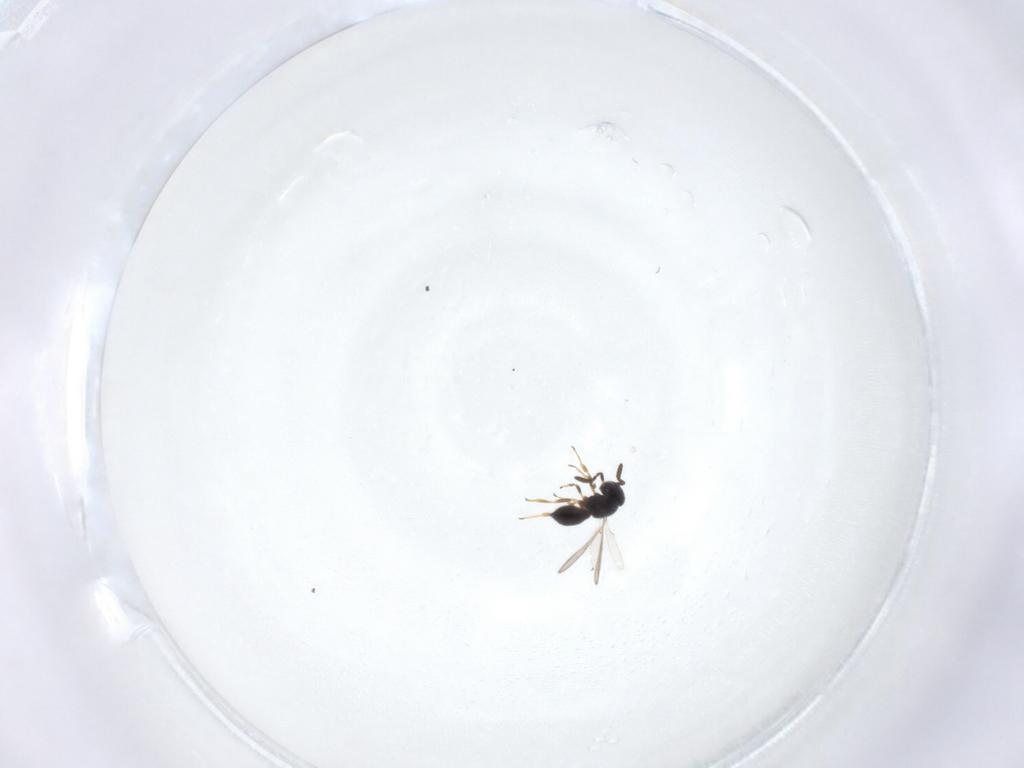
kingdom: Animalia
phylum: Arthropoda
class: Insecta
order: Hymenoptera
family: Scelionidae
